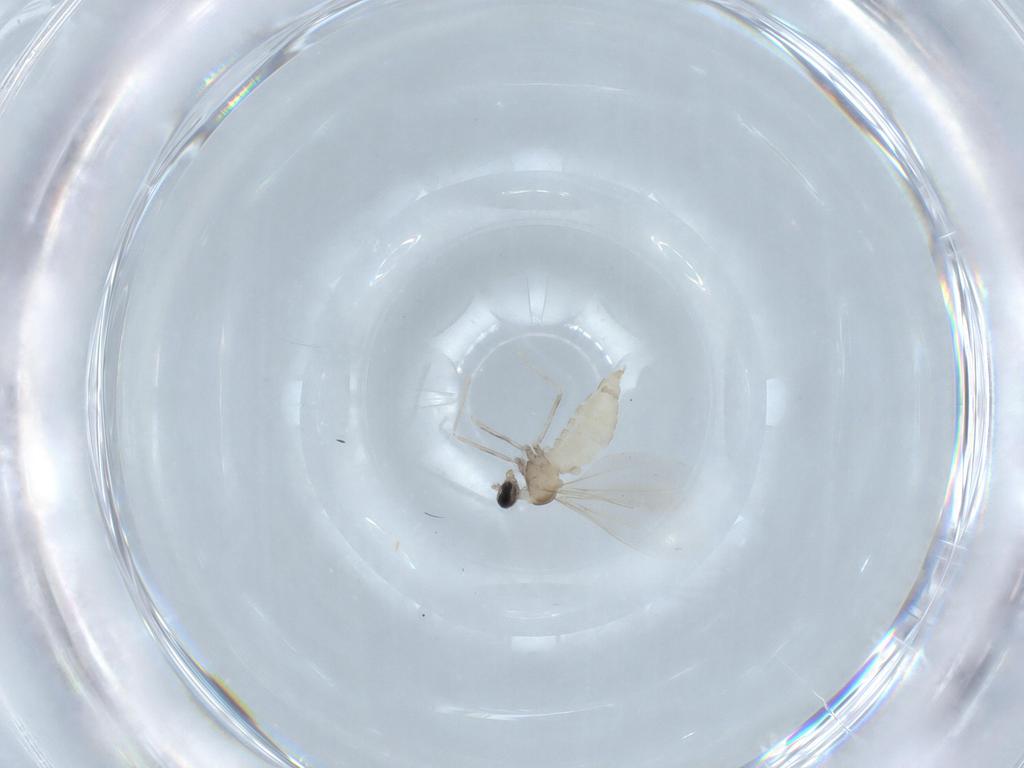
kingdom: Animalia
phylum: Arthropoda
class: Insecta
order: Diptera
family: Cecidomyiidae
